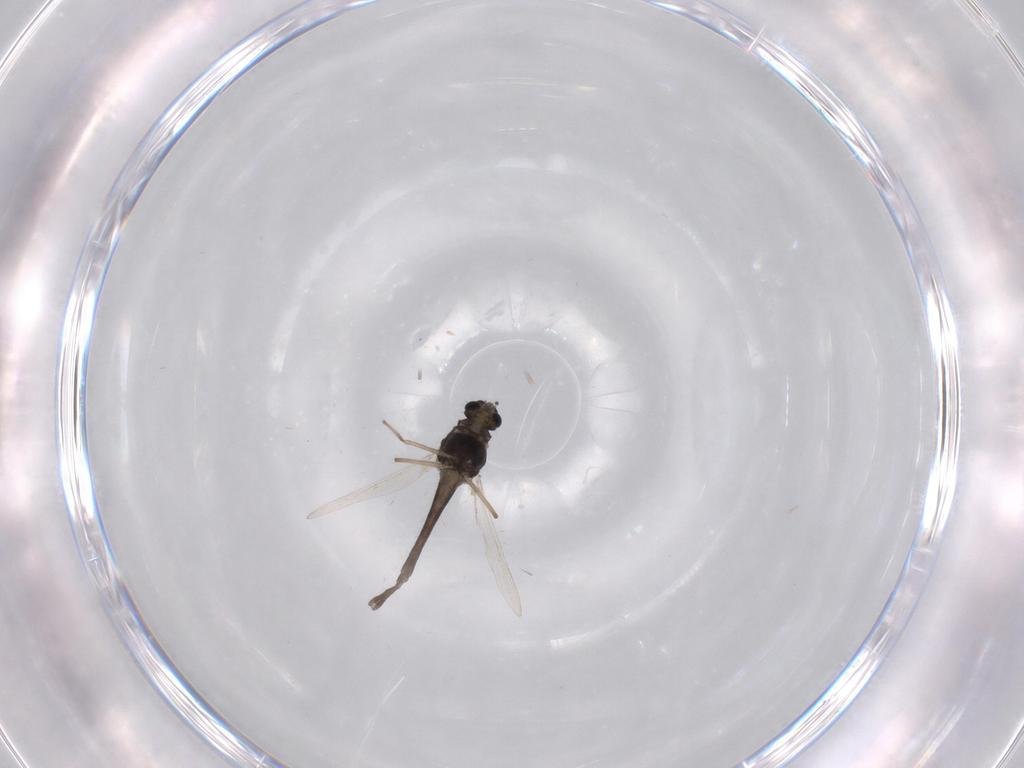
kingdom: Animalia
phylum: Arthropoda
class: Insecta
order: Diptera
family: Chironomidae
